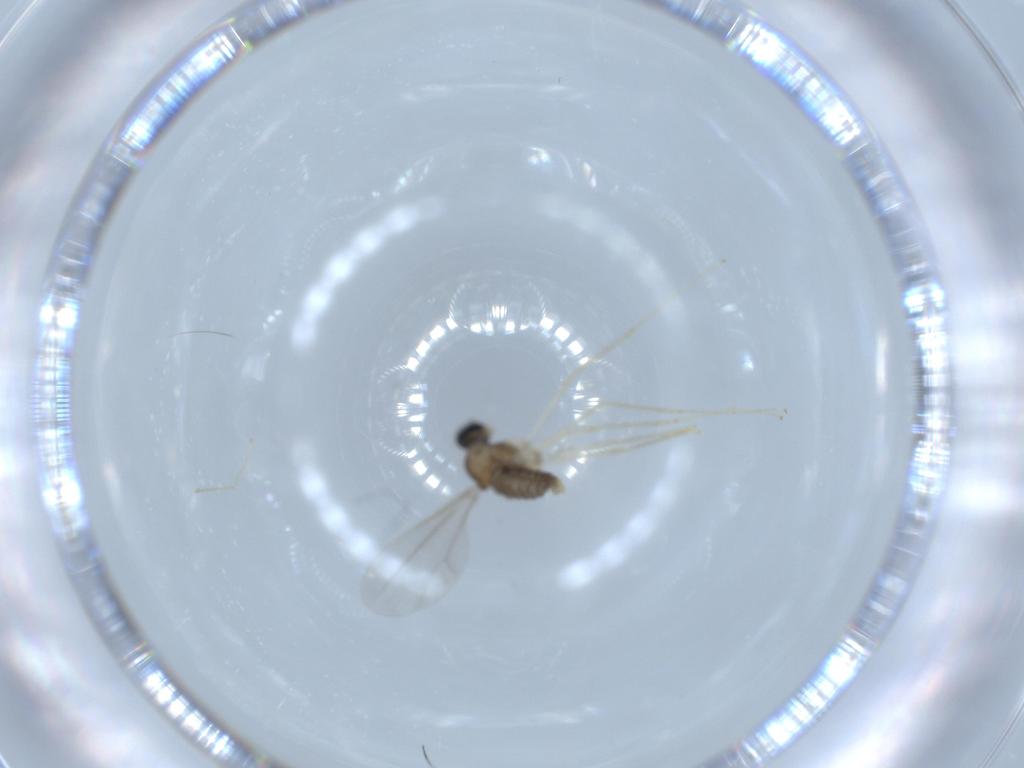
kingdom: Animalia
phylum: Arthropoda
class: Insecta
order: Diptera
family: Cecidomyiidae
